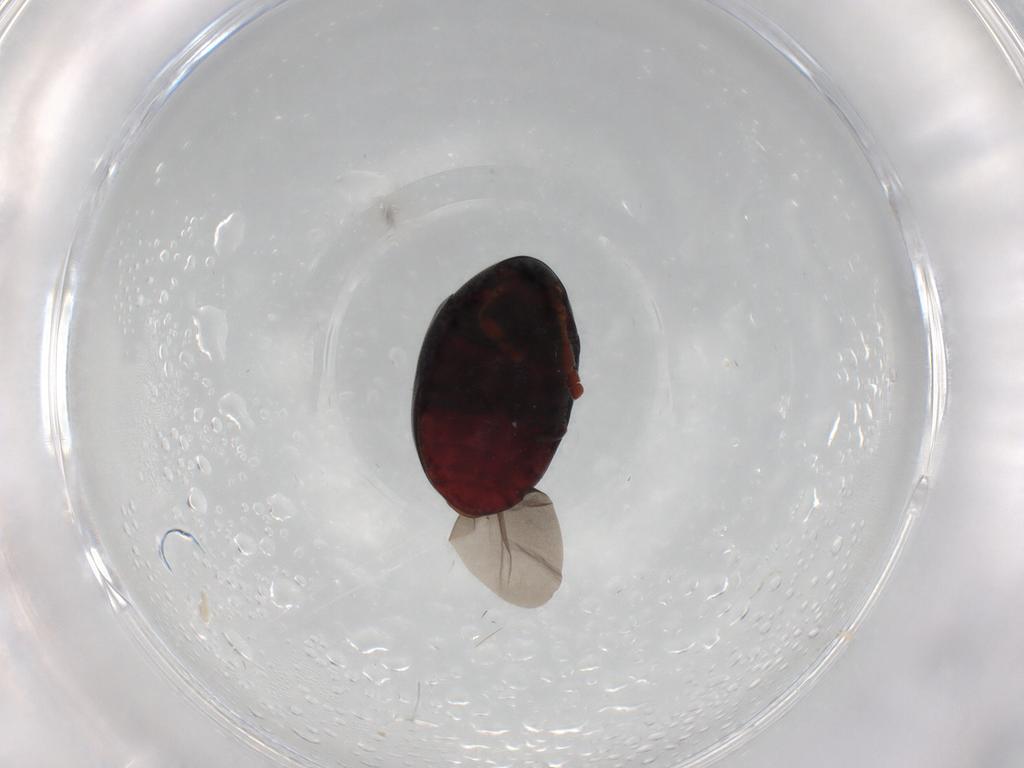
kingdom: Animalia
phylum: Arthropoda
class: Insecta
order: Coleoptera
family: Ptinidae
